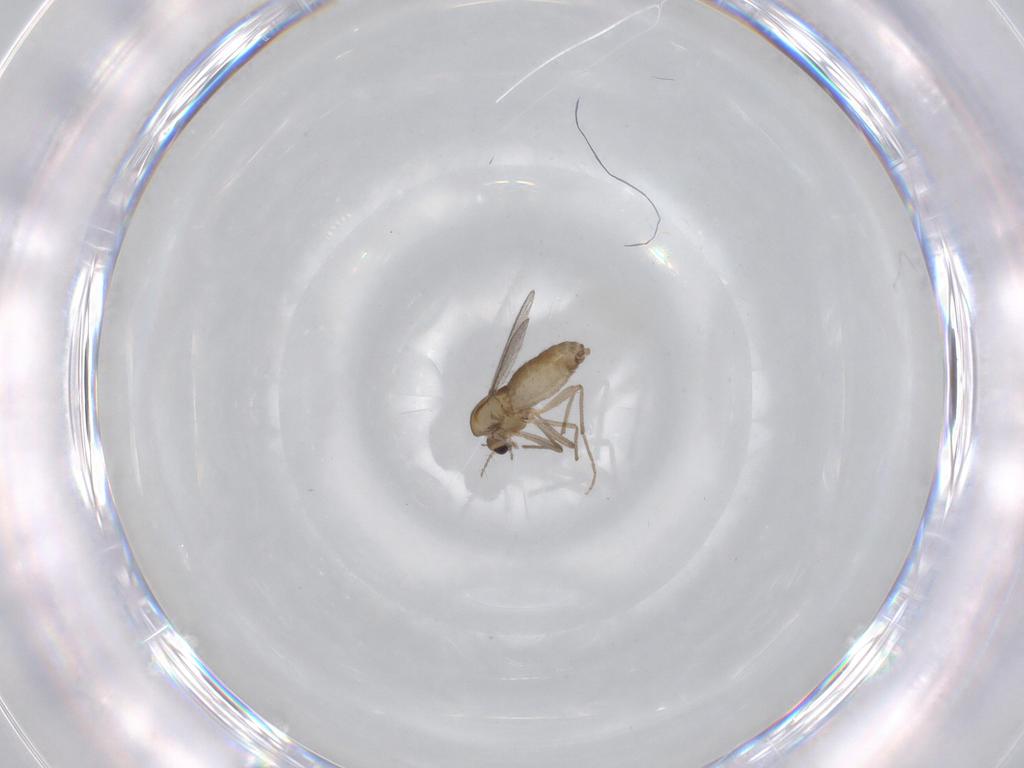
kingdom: Animalia
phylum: Arthropoda
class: Insecta
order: Diptera
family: Chironomidae
